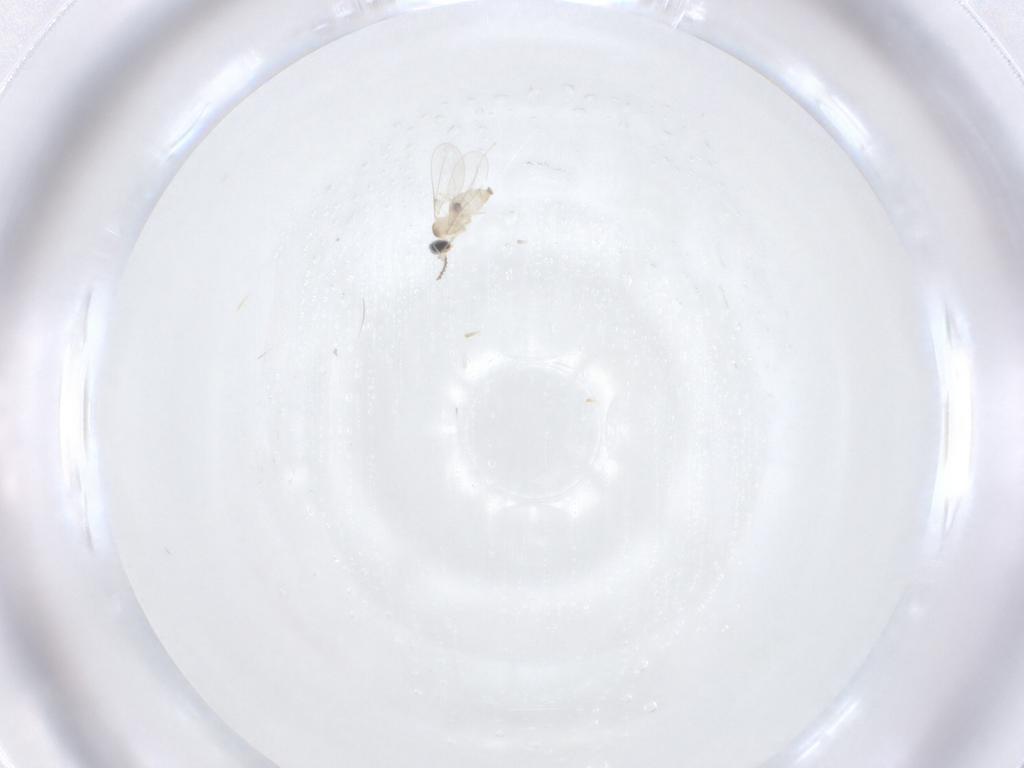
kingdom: Animalia
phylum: Arthropoda
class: Insecta
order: Diptera
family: Cecidomyiidae
